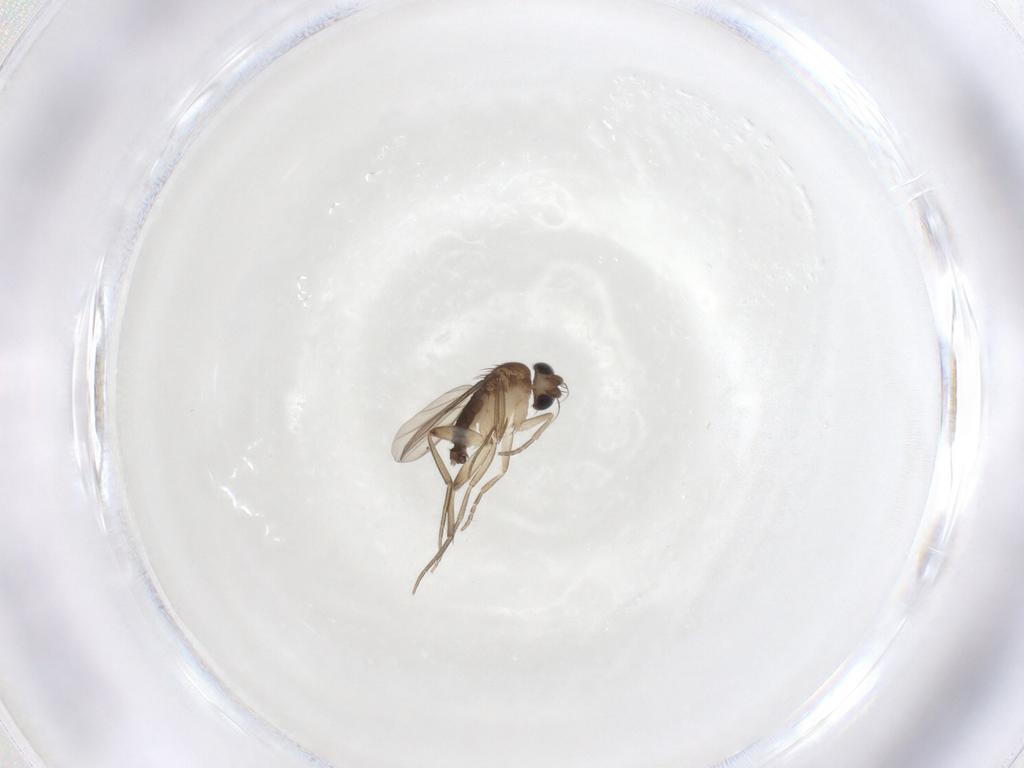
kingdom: Animalia
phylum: Arthropoda
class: Insecta
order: Diptera
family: Phoridae
